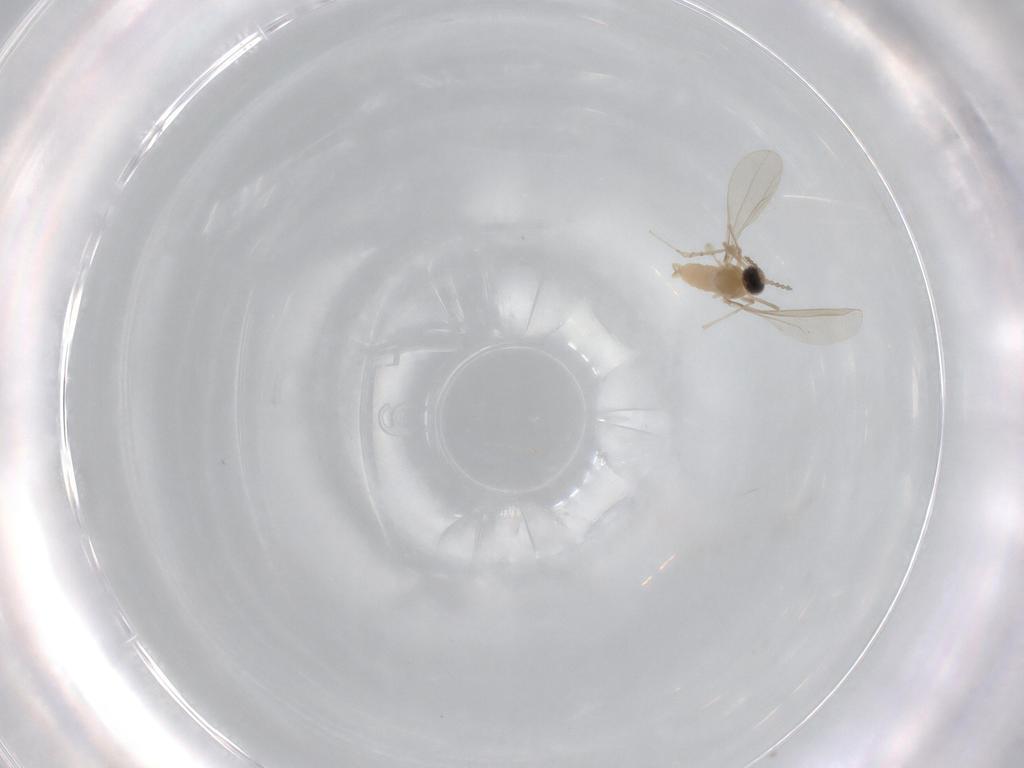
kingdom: Animalia
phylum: Arthropoda
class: Insecta
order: Diptera
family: Cecidomyiidae
